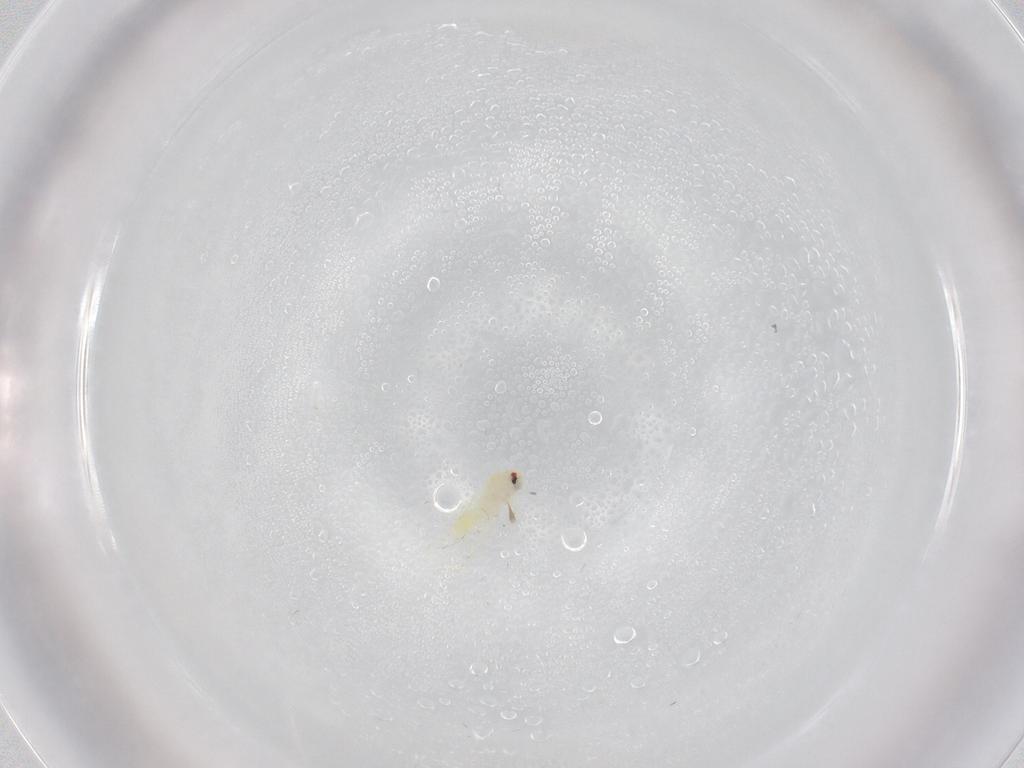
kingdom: Animalia
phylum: Arthropoda
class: Insecta
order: Hemiptera
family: Aleyrodidae
